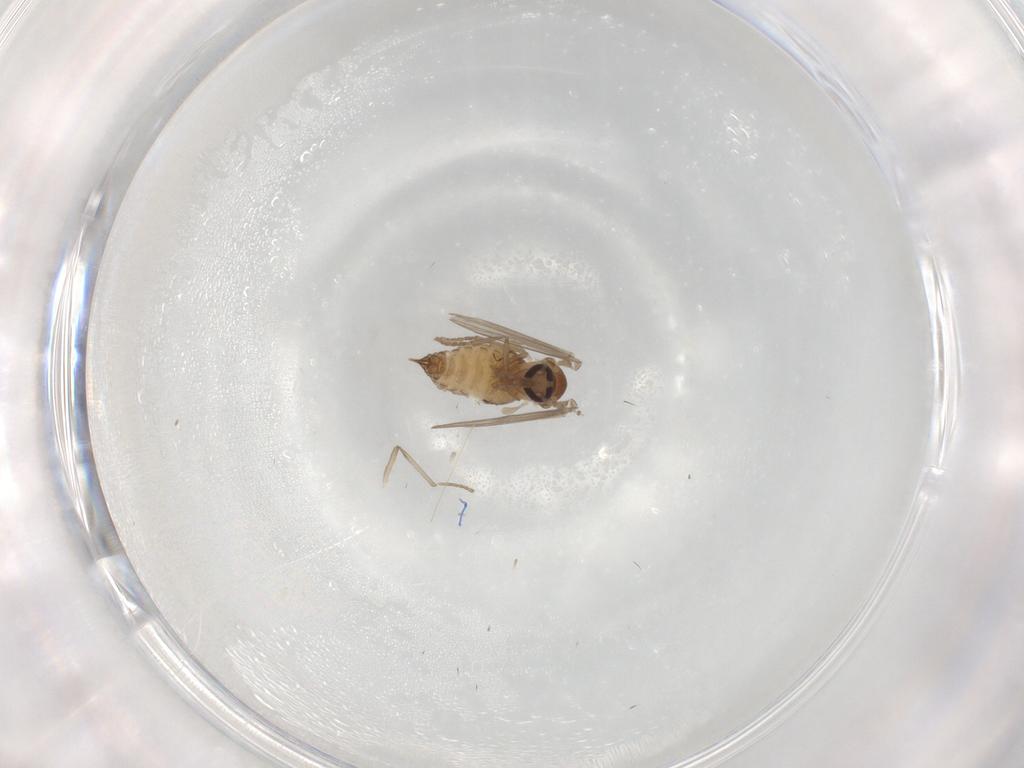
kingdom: Animalia
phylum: Arthropoda
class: Insecta
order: Diptera
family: Psychodidae
